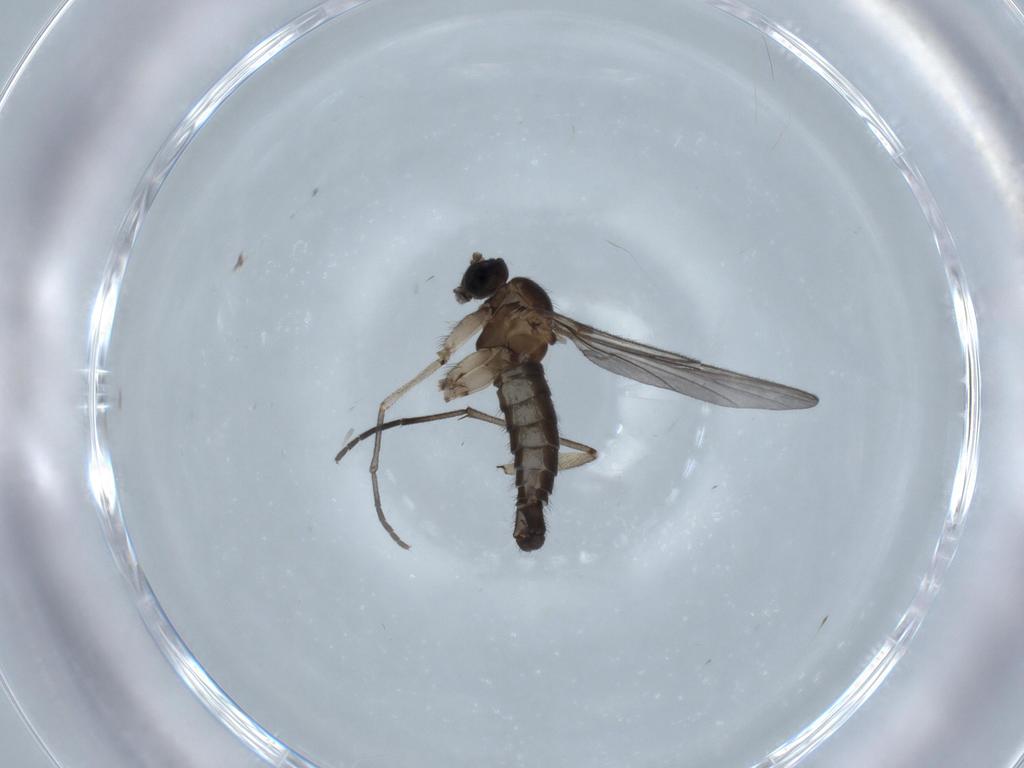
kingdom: Animalia
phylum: Arthropoda
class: Insecta
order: Diptera
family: Sciaridae
